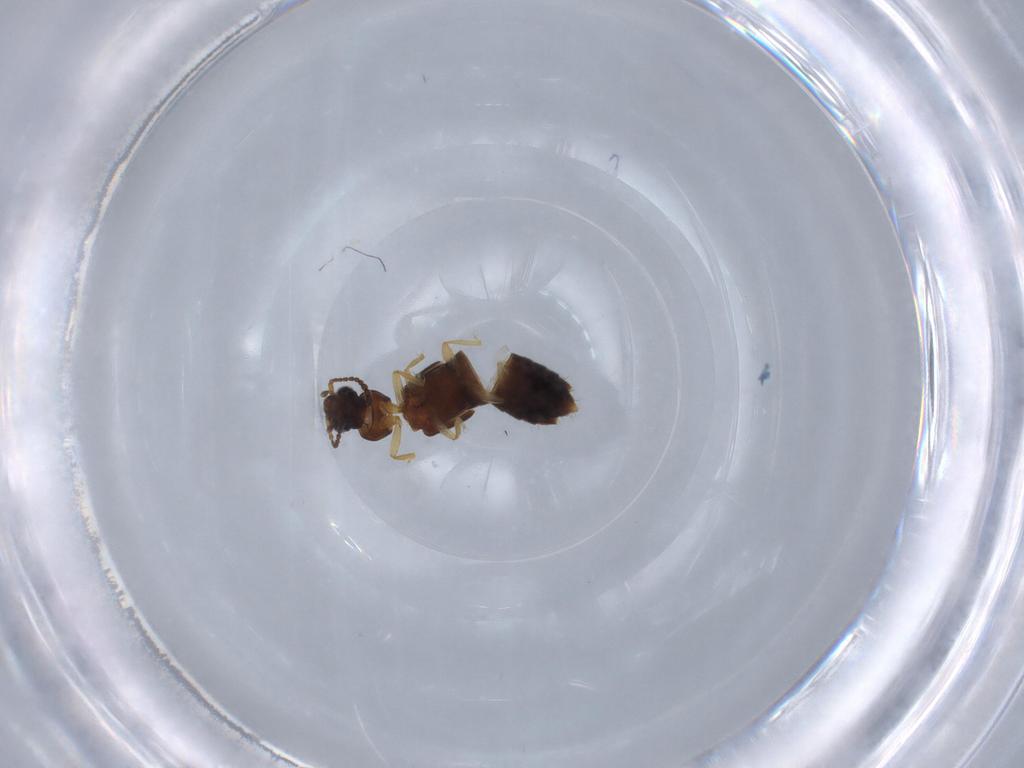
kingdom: Animalia
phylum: Arthropoda
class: Insecta
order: Coleoptera
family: Staphylinidae
